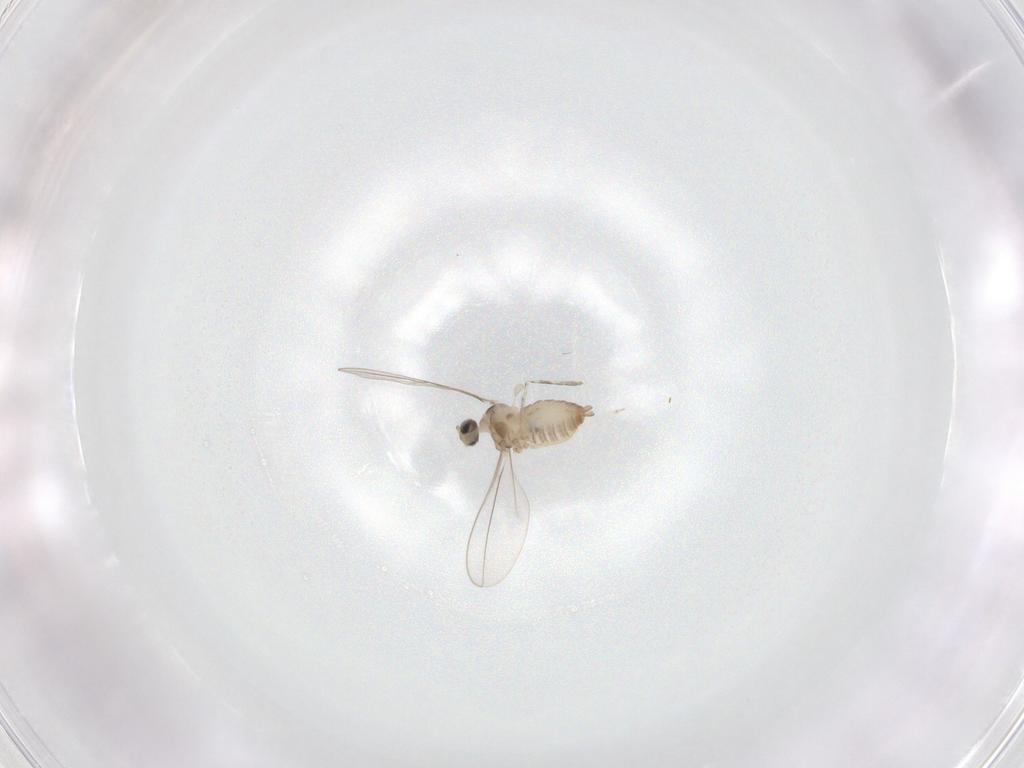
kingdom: Animalia
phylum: Arthropoda
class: Insecta
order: Diptera
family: Cecidomyiidae
